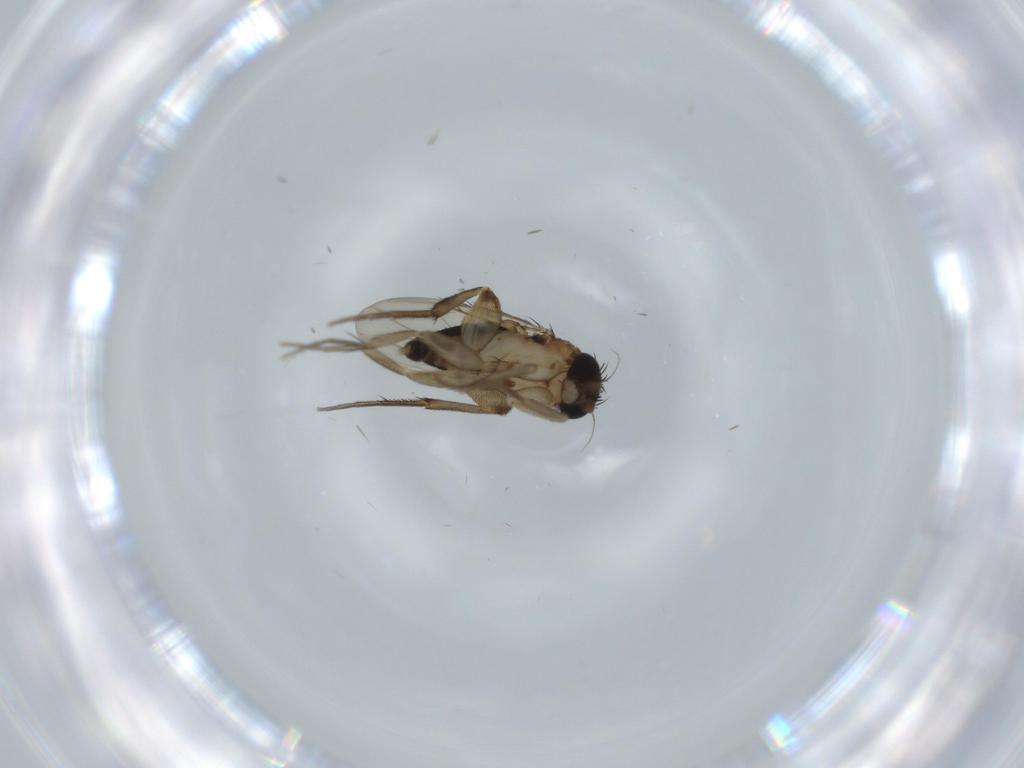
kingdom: Animalia
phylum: Arthropoda
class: Insecta
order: Diptera
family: Phoridae
